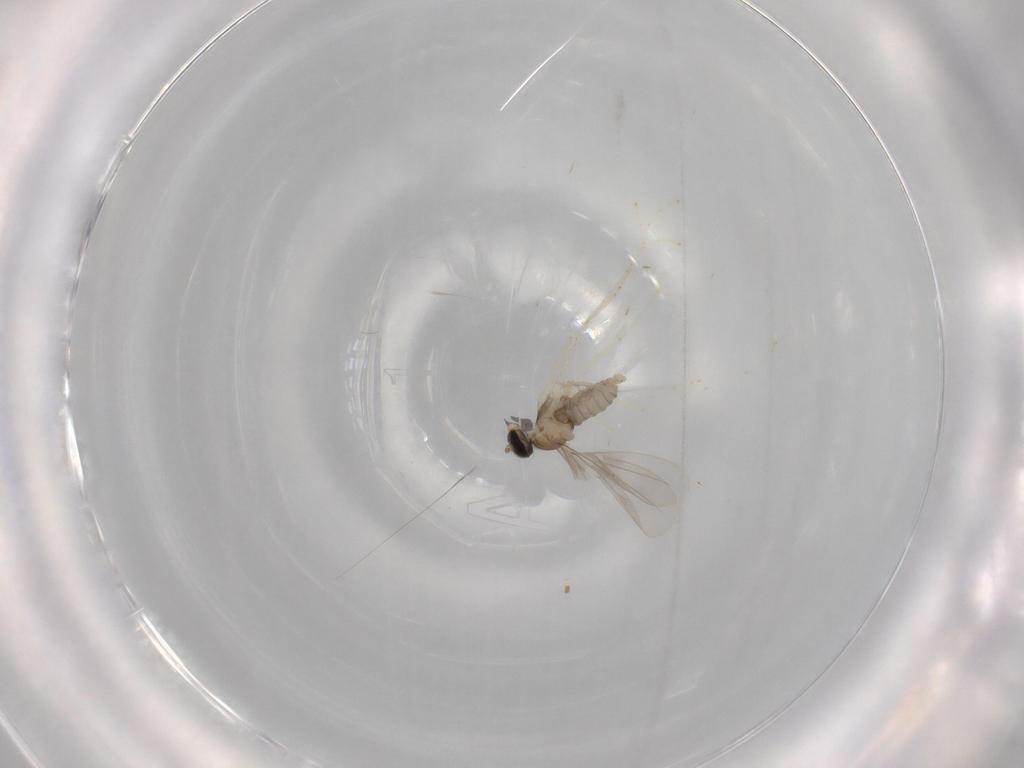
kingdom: Animalia
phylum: Arthropoda
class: Insecta
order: Diptera
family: Cecidomyiidae
